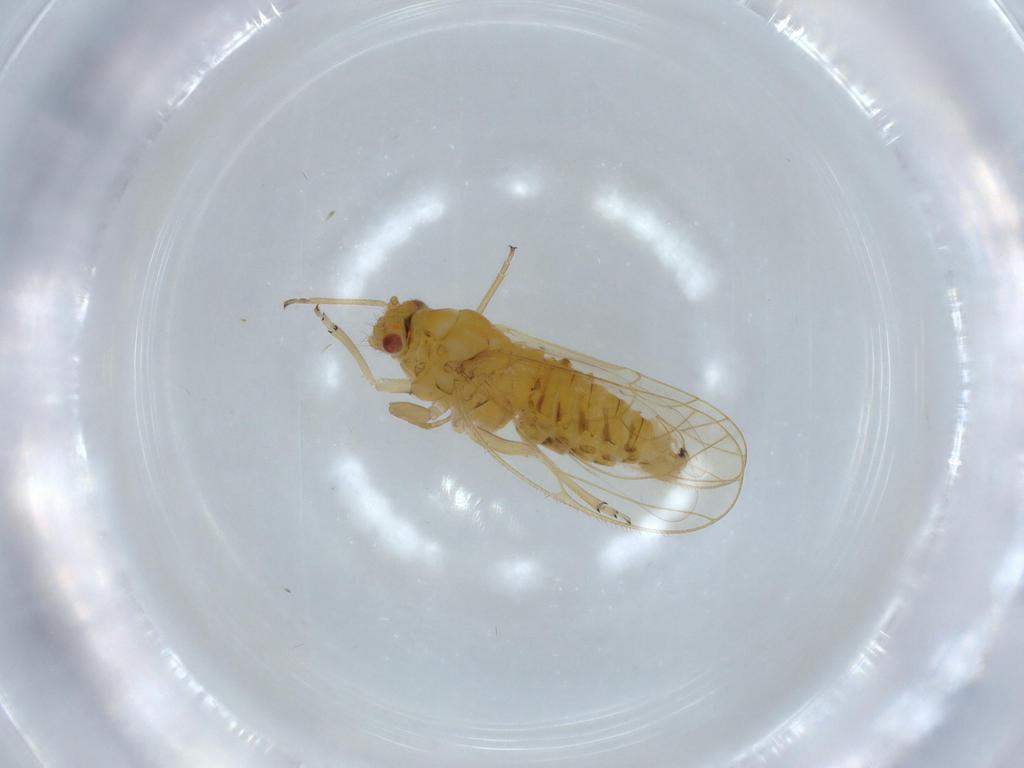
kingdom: Animalia
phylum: Arthropoda
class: Insecta
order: Hemiptera
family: Psyllidae
